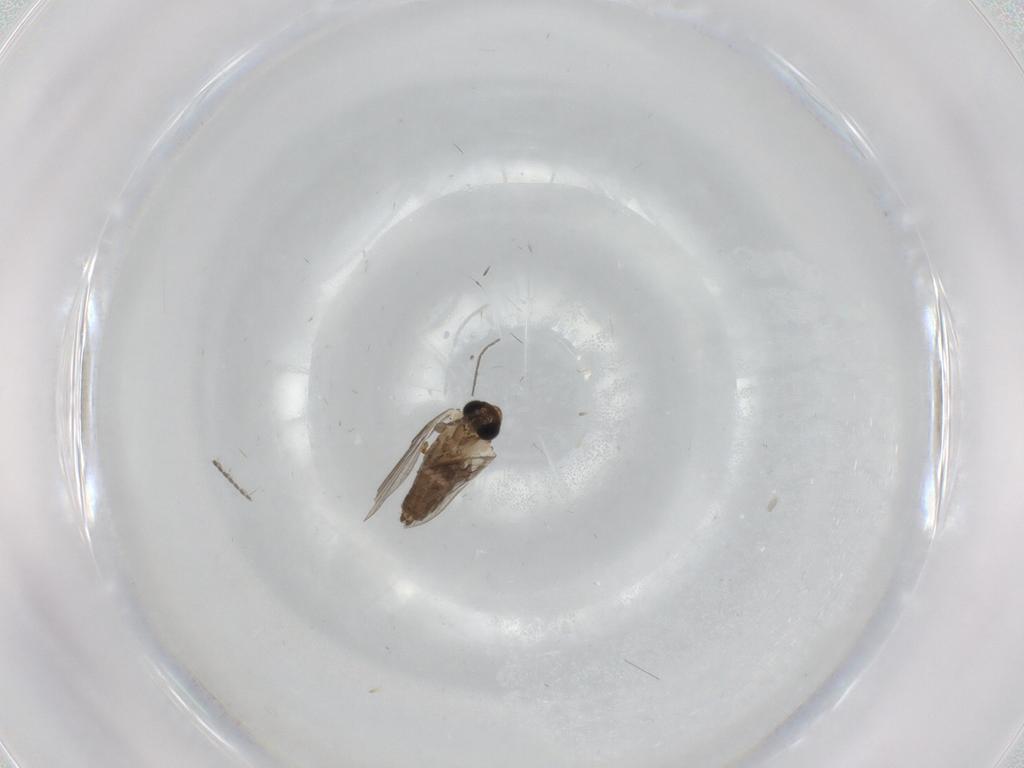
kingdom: Animalia
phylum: Arthropoda
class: Insecta
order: Diptera
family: Psychodidae
